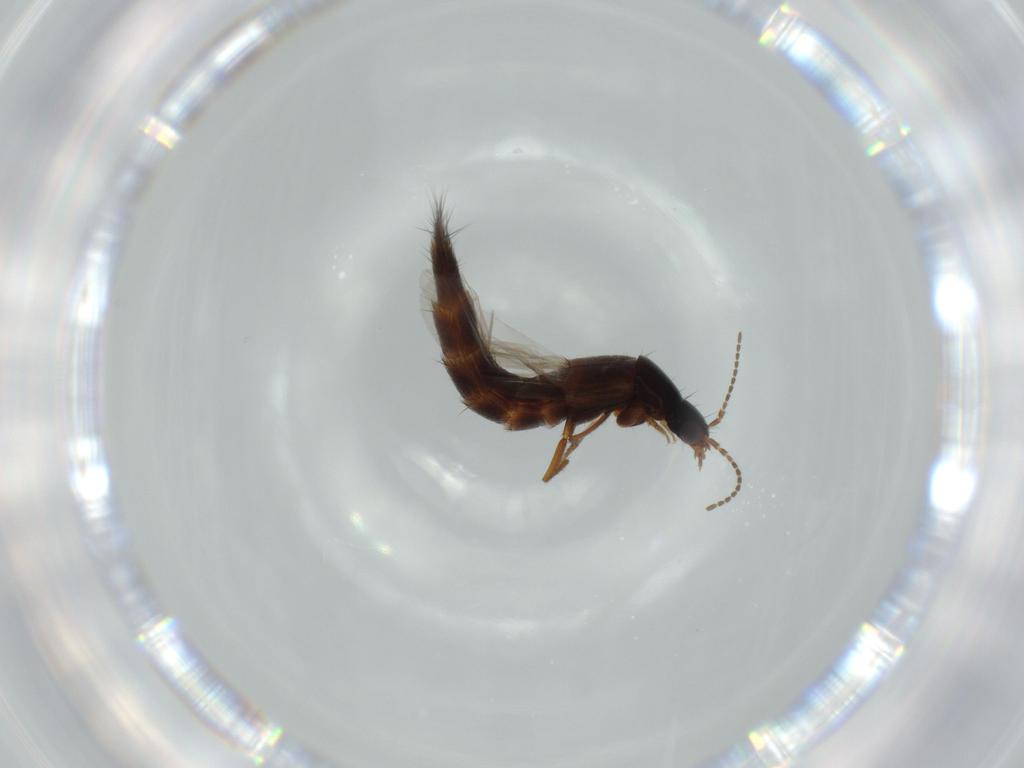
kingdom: Animalia
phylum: Arthropoda
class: Insecta
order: Coleoptera
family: Staphylinidae
